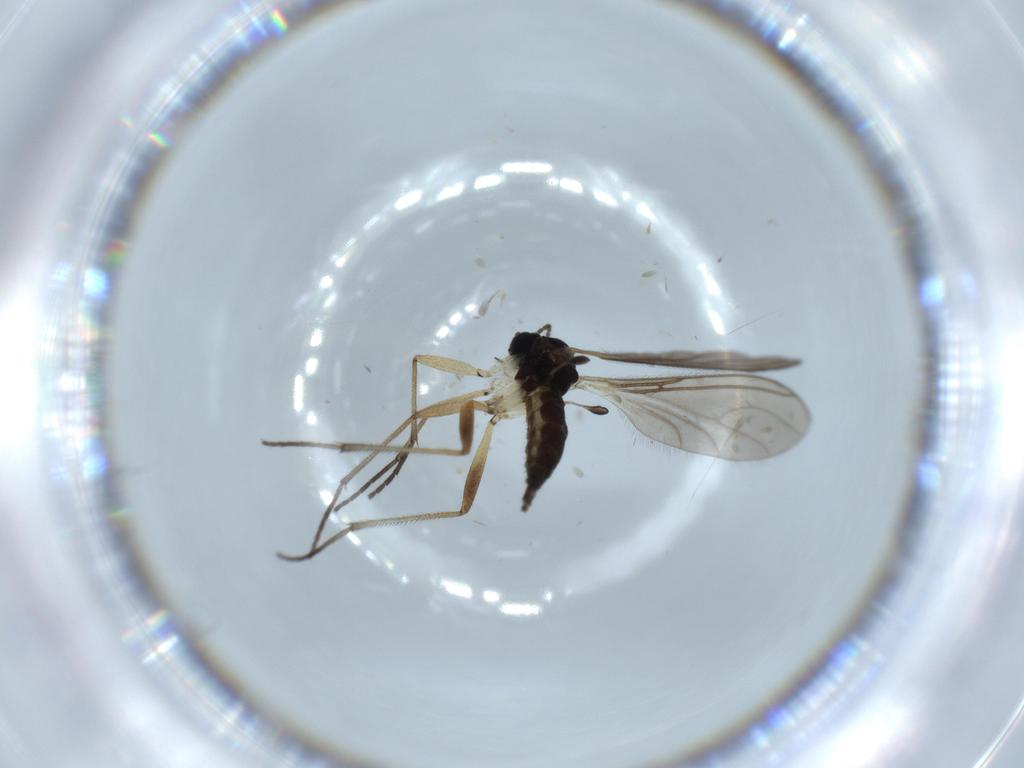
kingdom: Animalia
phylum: Arthropoda
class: Insecta
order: Diptera
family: Sciaridae
